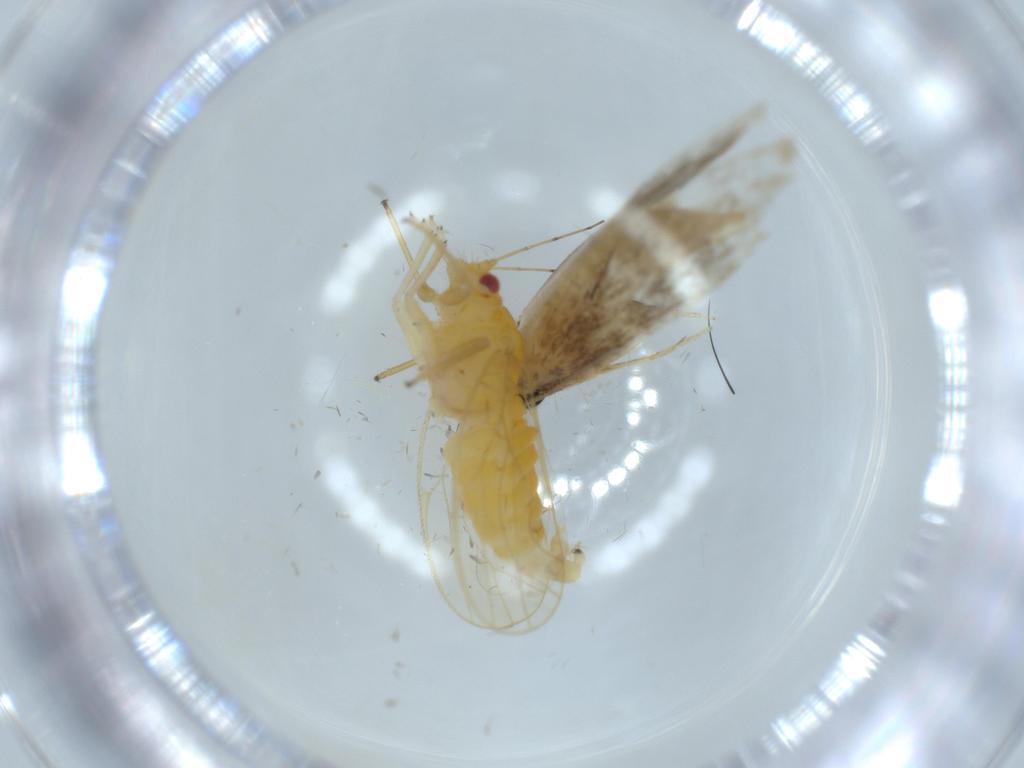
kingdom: Animalia
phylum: Arthropoda
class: Insecta
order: Lepidoptera
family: Tineidae
